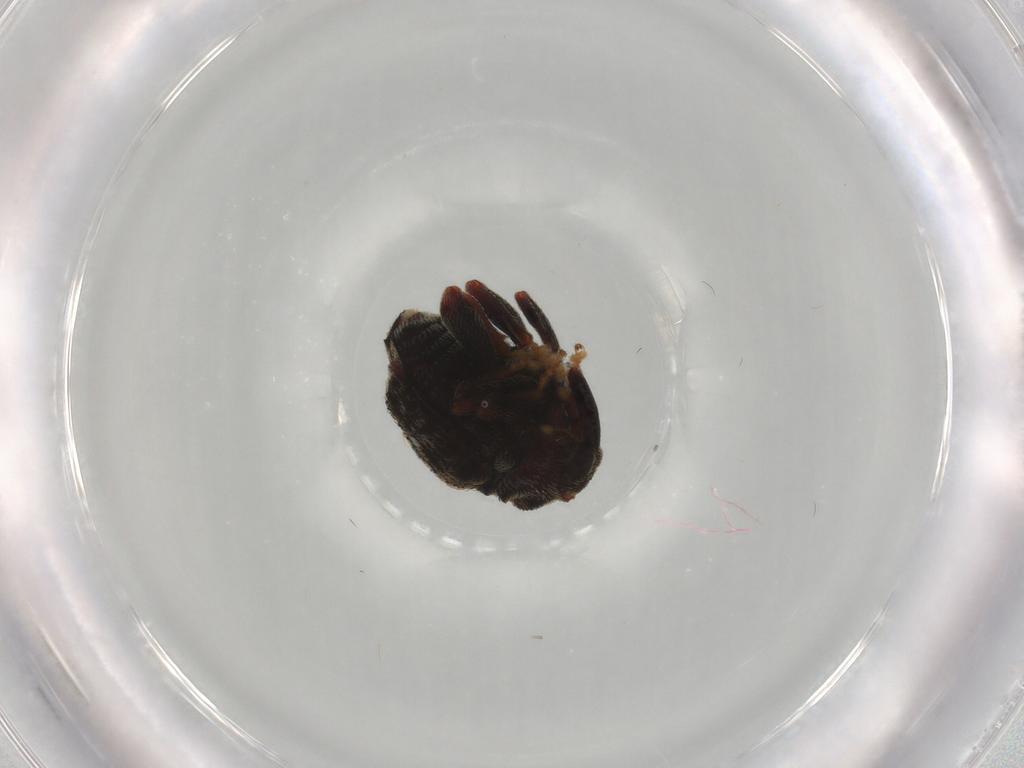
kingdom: Animalia
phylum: Arthropoda
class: Insecta
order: Coleoptera
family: Curculionidae
